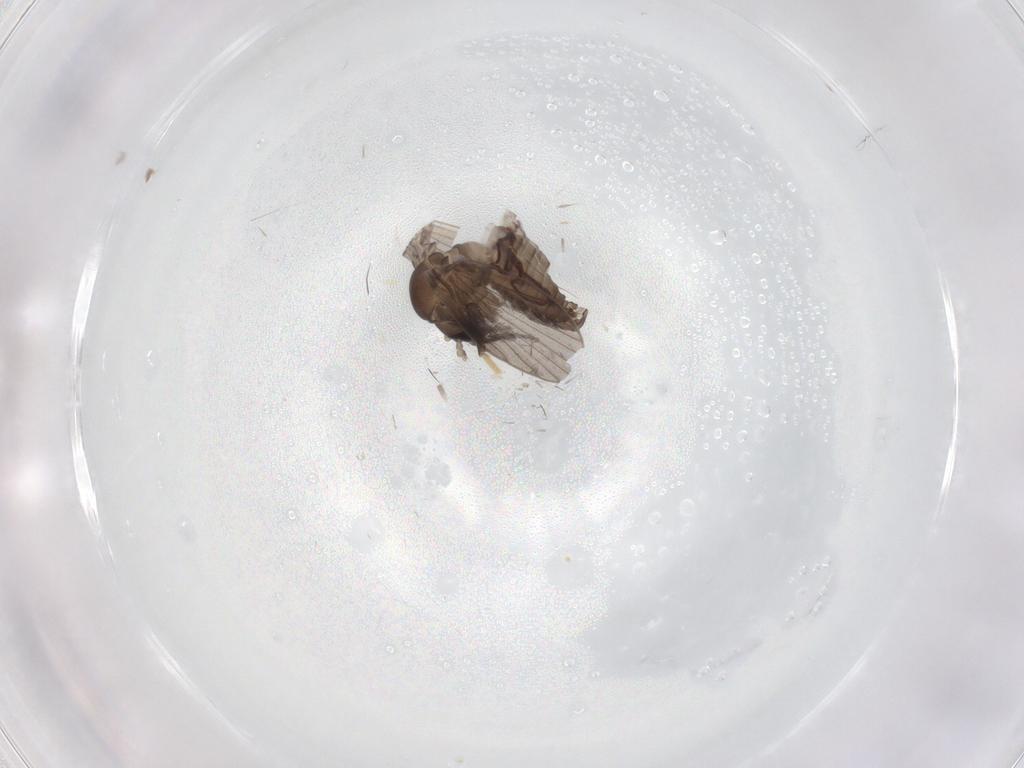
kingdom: Animalia
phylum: Arthropoda
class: Insecta
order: Diptera
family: Psychodidae
